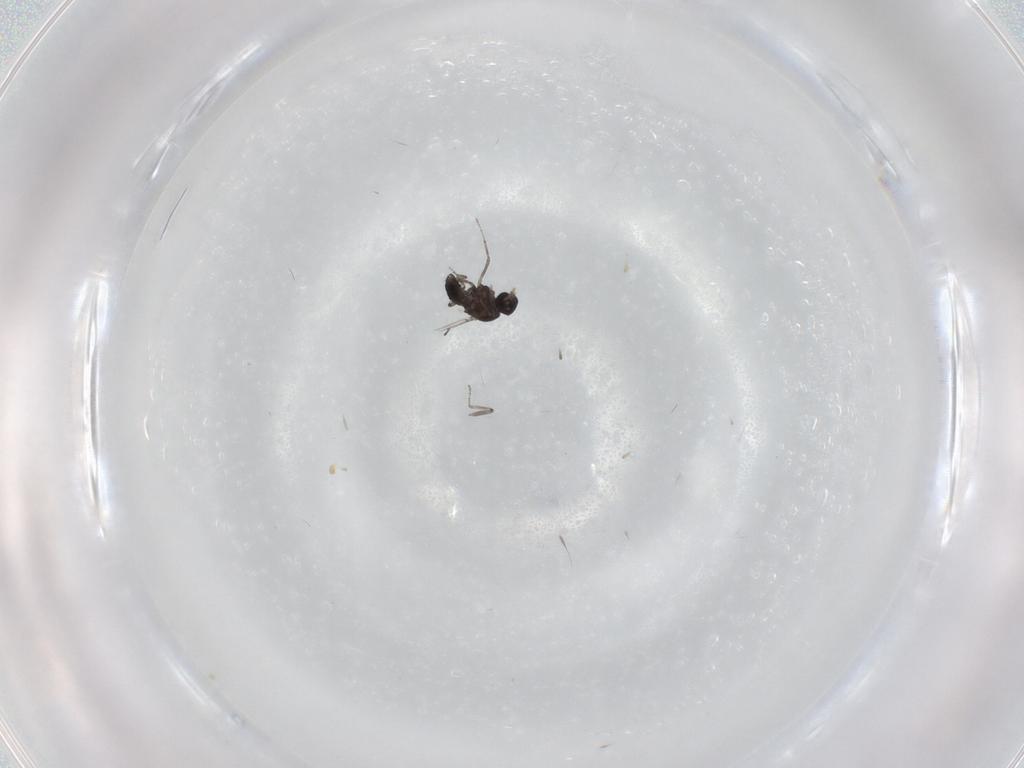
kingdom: Animalia
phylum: Arthropoda
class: Insecta
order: Diptera
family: Ceratopogonidae
